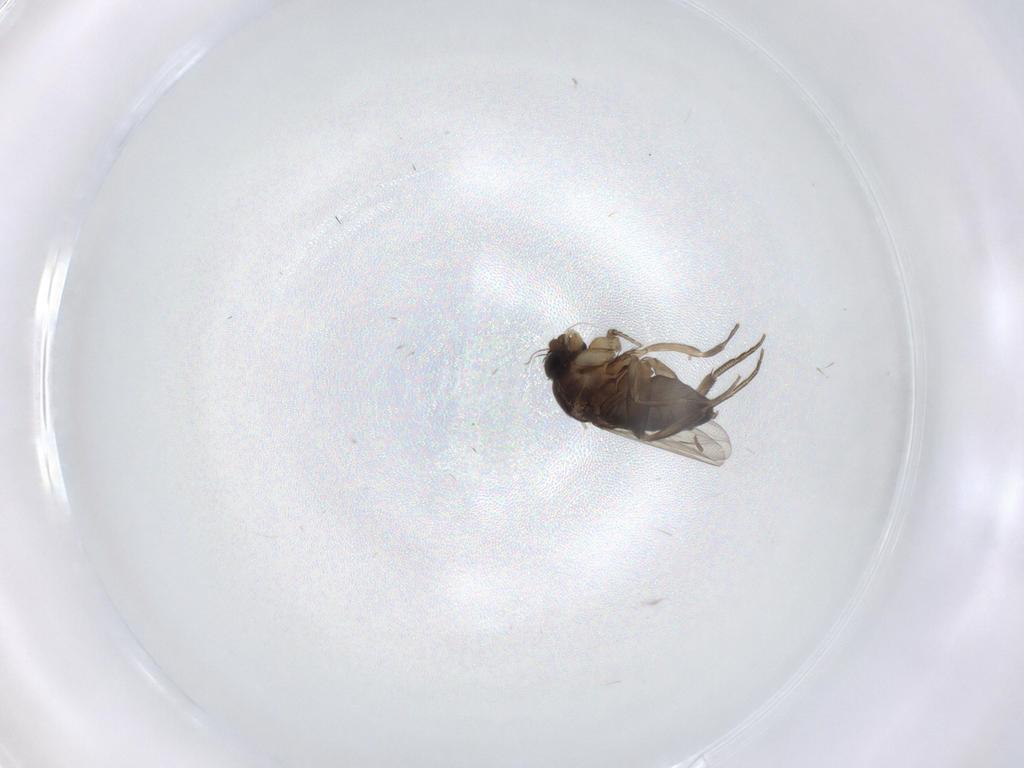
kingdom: Animalia
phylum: Arthropoda
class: Insecta
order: Diptera
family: Phoridae
